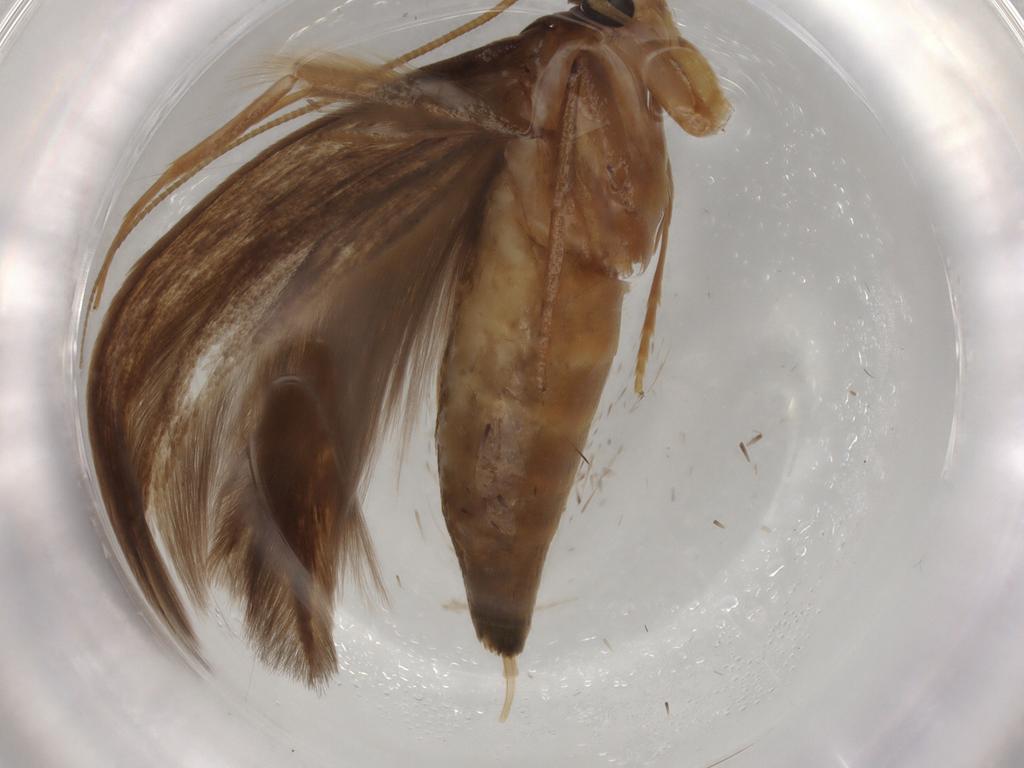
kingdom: Animalia
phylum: Arthropoda
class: Insecta
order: Lepidoptera
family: Tineidae
